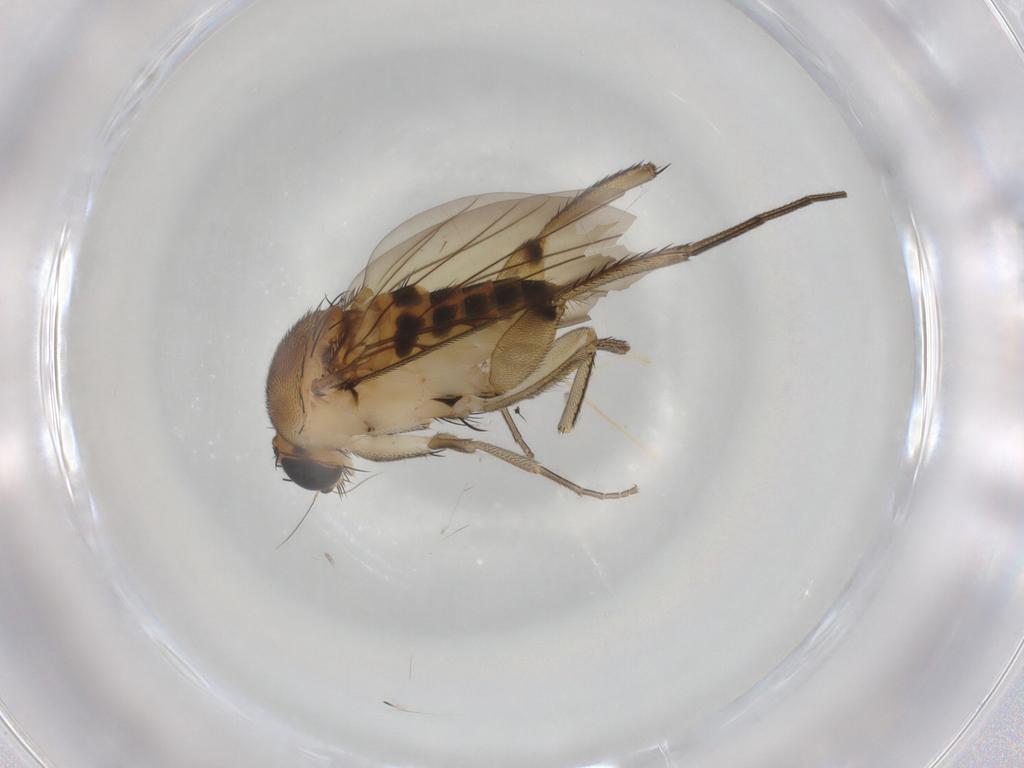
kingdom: Animalia
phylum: Arthropoda
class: Insecta
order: Diptera
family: Phoridae
